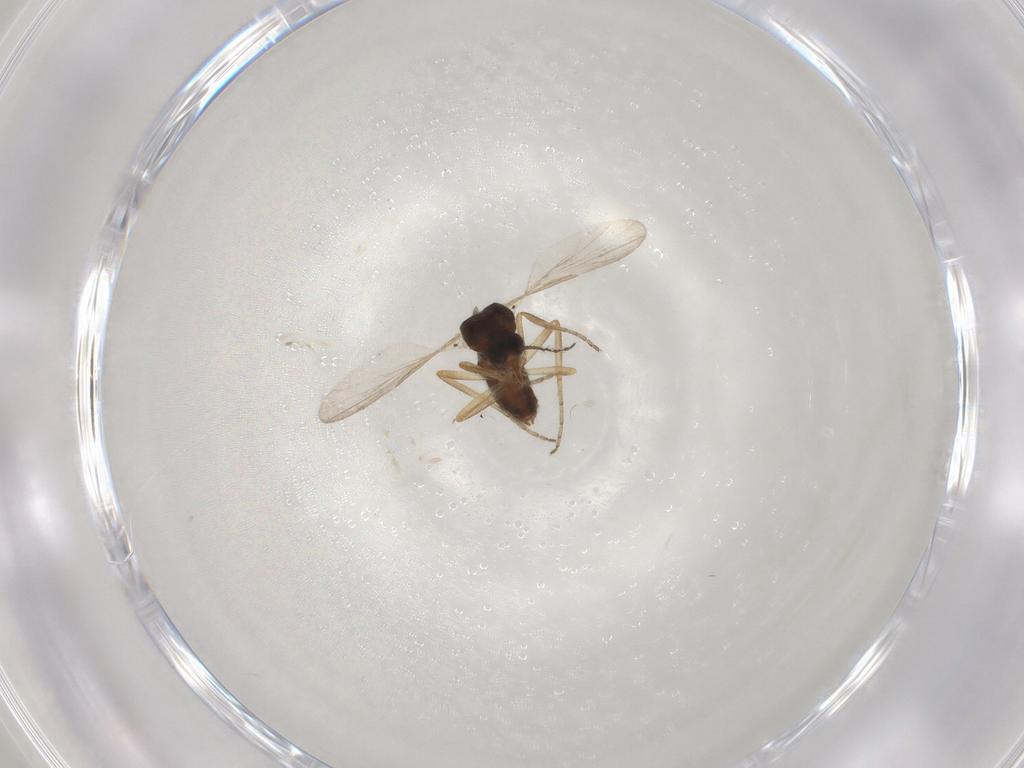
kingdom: Animalia
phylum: Arthropoda
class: Insecta
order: Diptera
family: Ceratopogonidae
